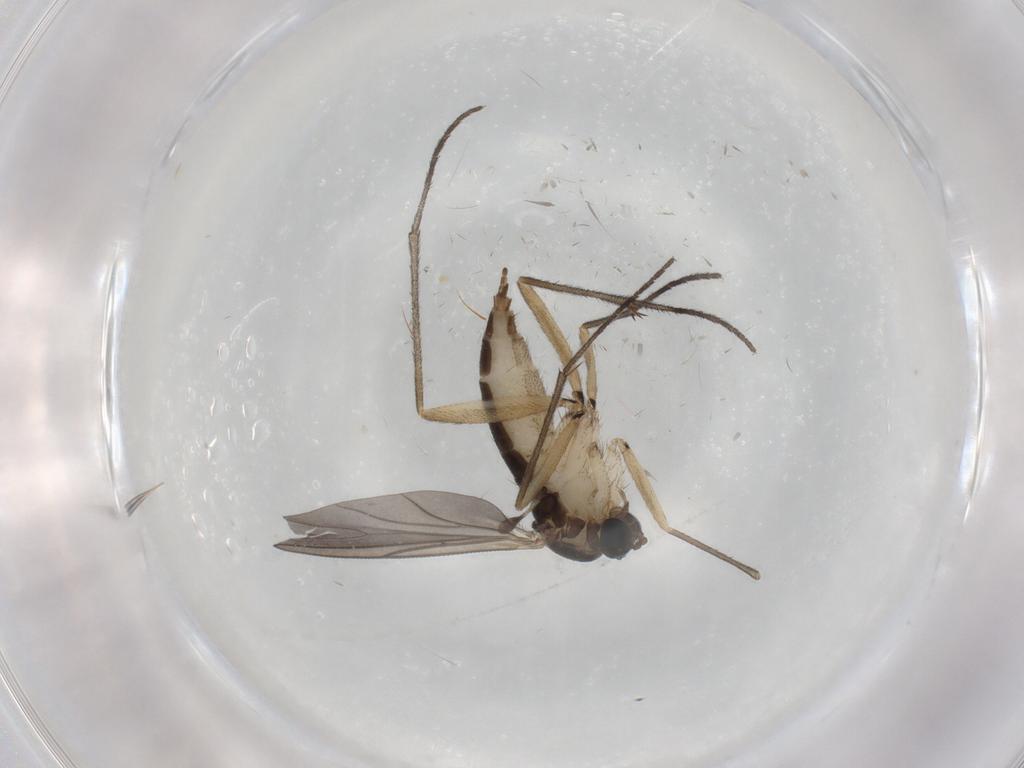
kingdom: Animalia
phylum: Arthropoda
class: Insecta
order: Diptera
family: Sciaridae
